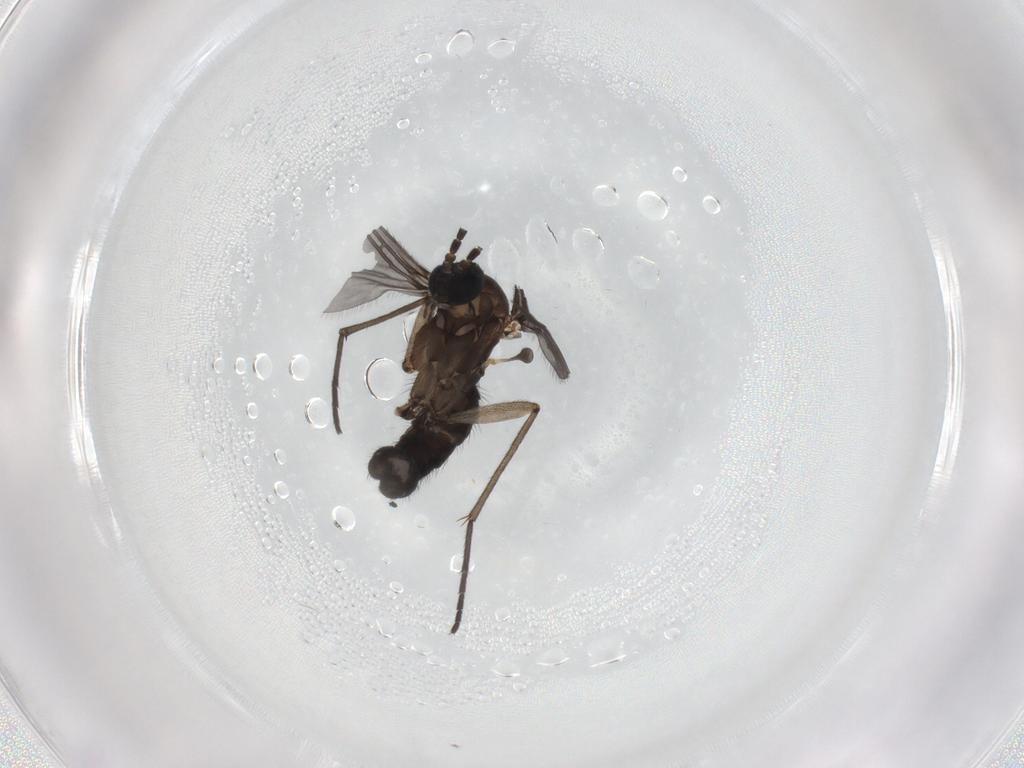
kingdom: Animalia
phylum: Arthropoda
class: Insecta
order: Diptera
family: Sciaridae
